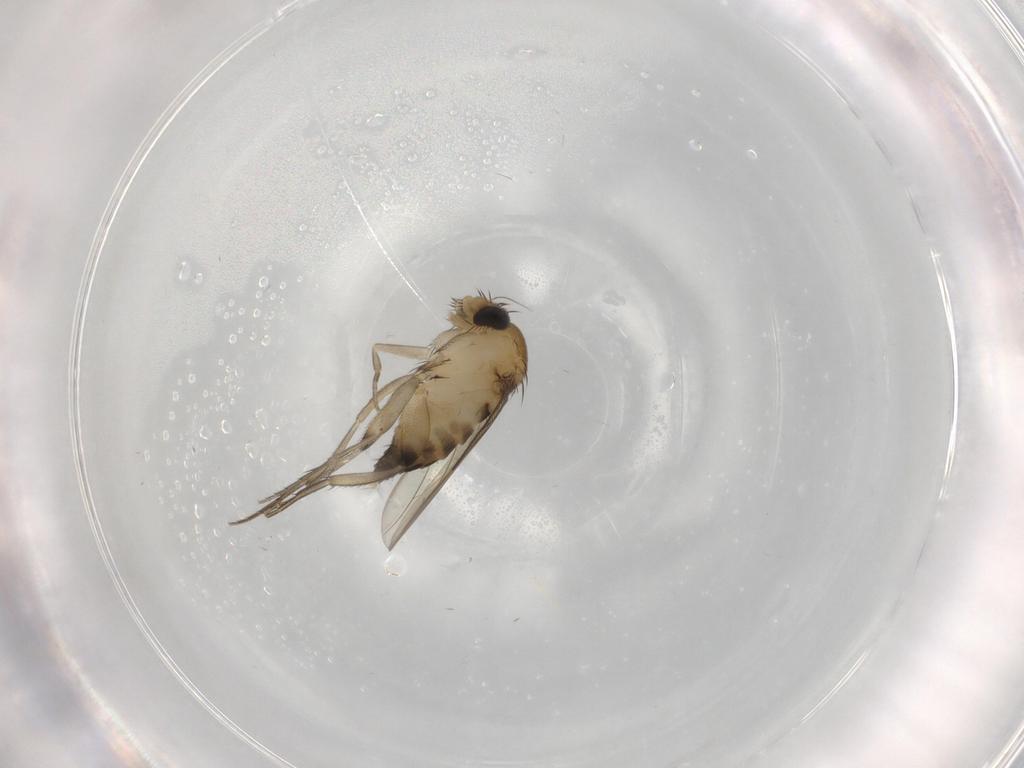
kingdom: Animalia
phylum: Arthropoda
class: Insecta
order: Diptera
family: Phoridae
